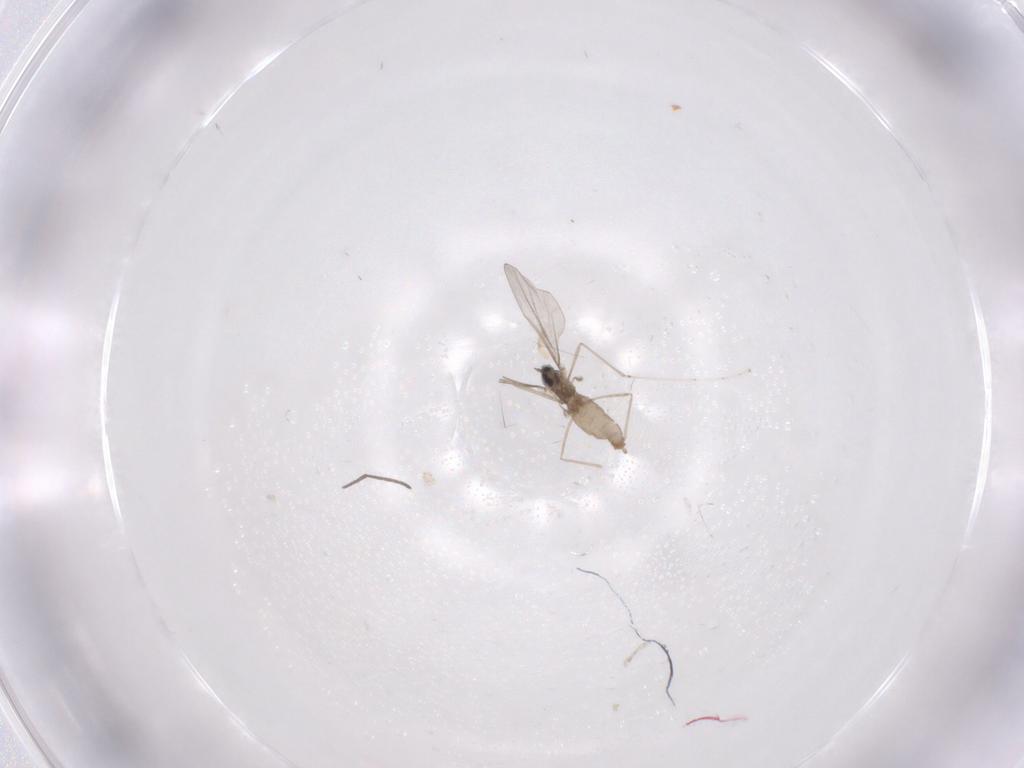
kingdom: Animalia
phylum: Arthropoda
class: Insecta
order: Diptera
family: Cecidomyiidae
